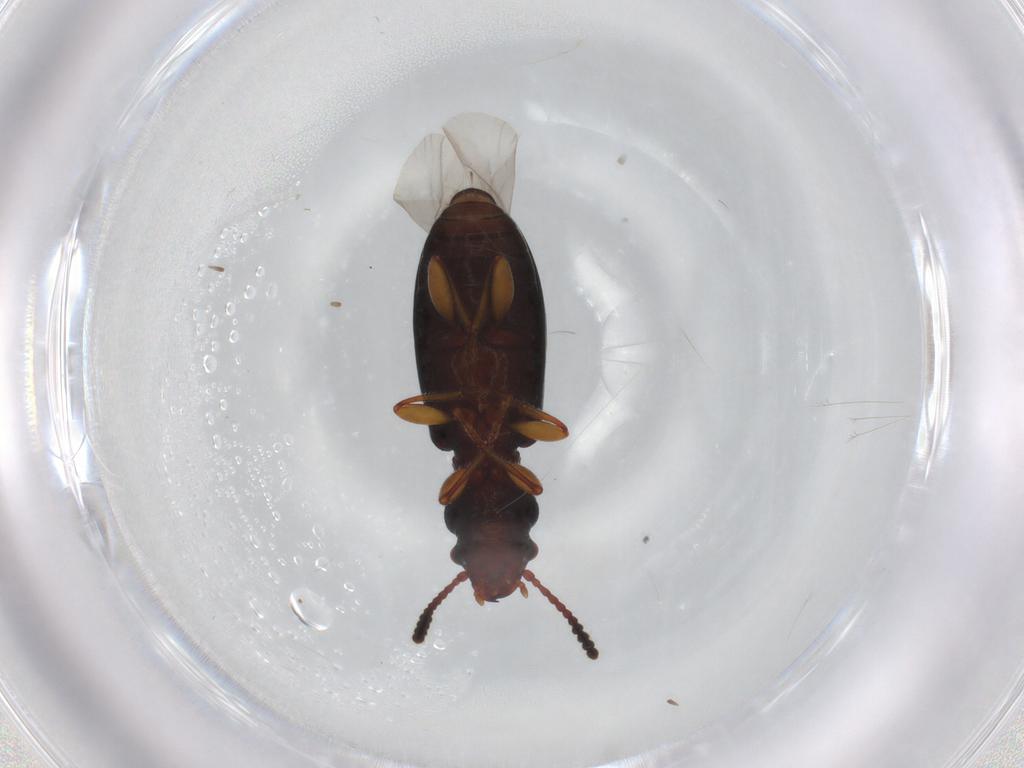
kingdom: Animalia
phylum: Arthropoda
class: Insecta
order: Coleoptera
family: Salpingidae
